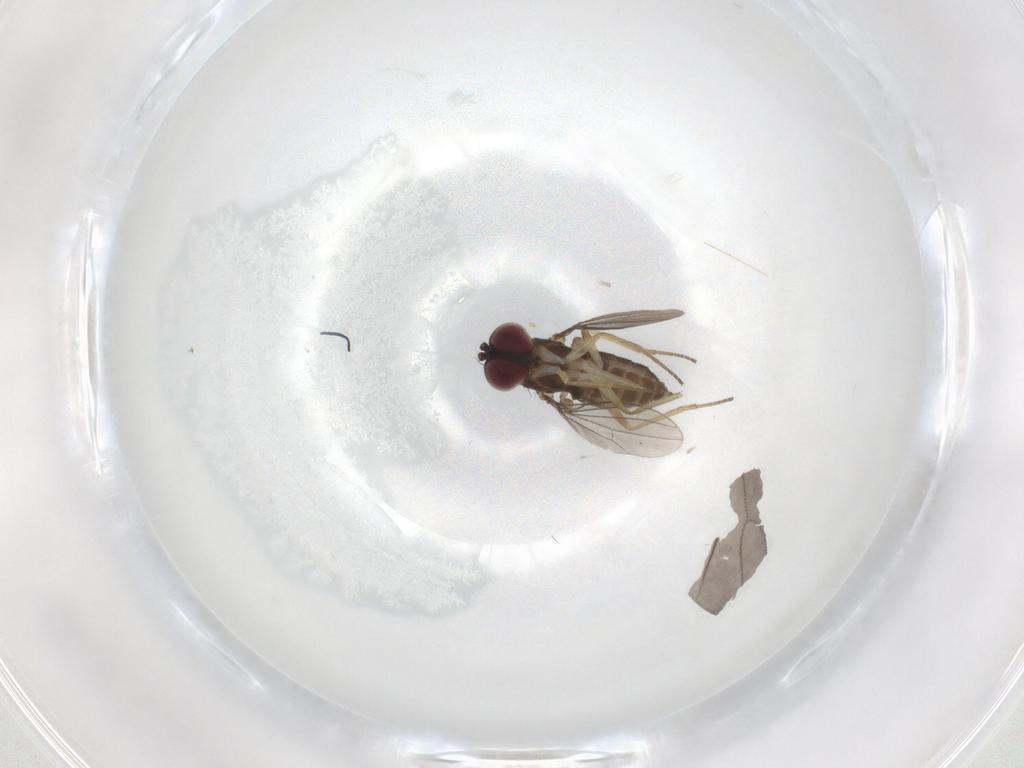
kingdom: Animalia
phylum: Arthropoda
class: Insecta
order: Diptera
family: Dolichopodidae
